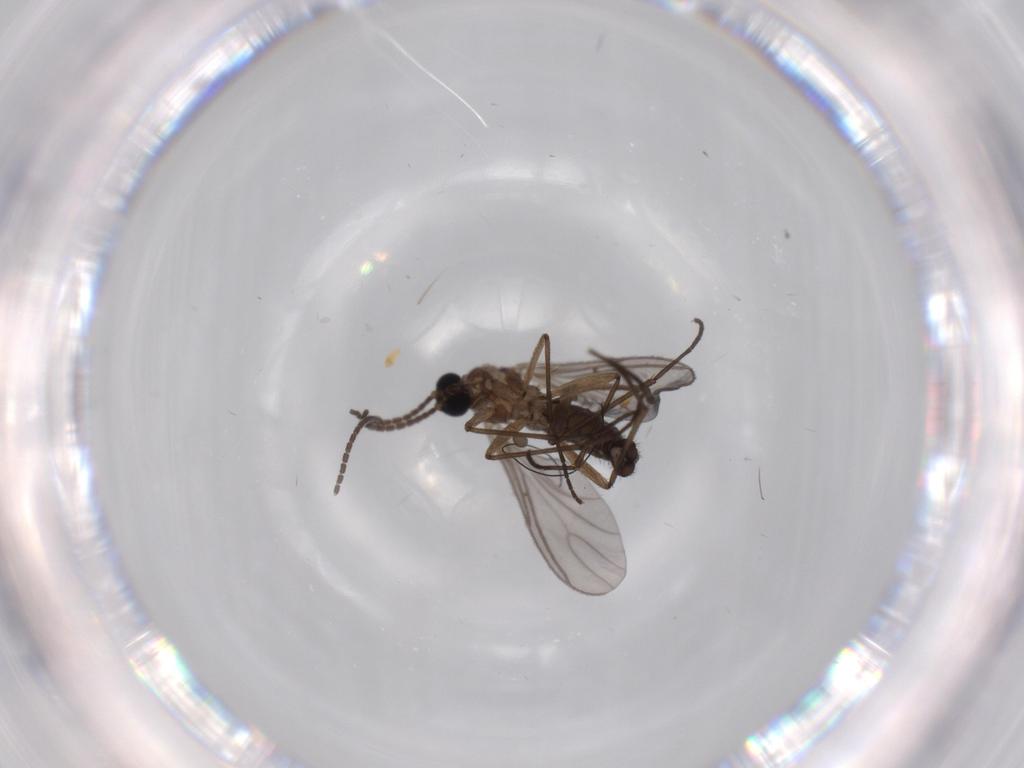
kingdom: Animalia
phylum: Arthropoda
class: Insecta
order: Diptera
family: Sciaridae
